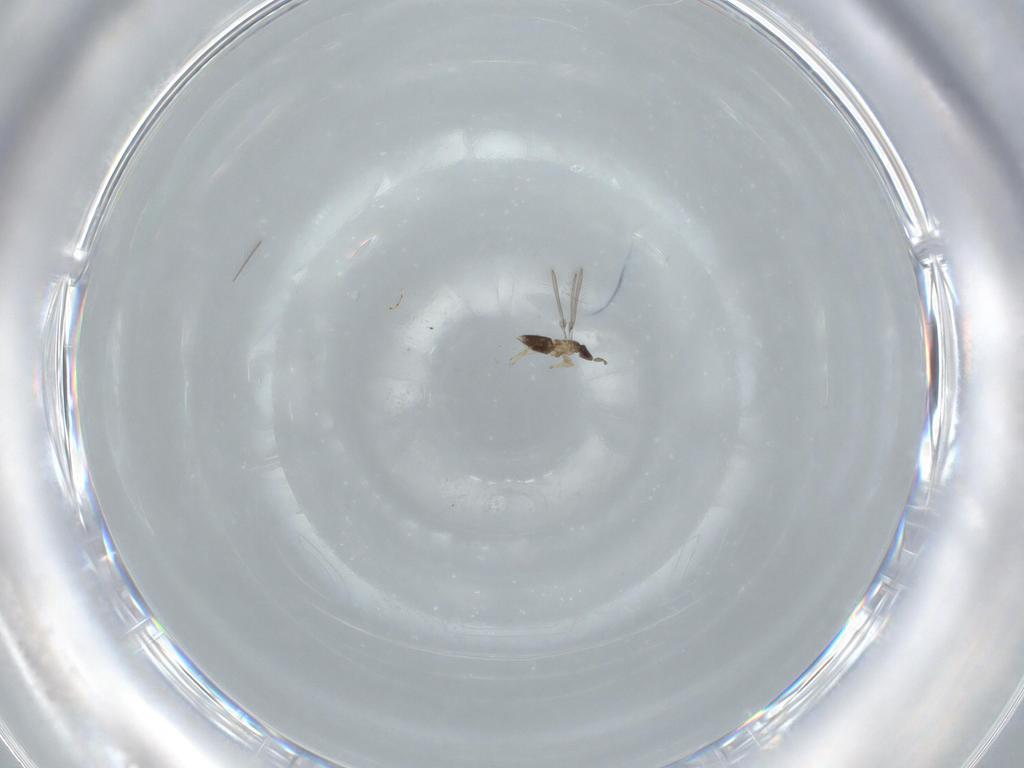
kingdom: Animalia
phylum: Arthropoda
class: Insecta
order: Hymenoptera
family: Mymaridae
